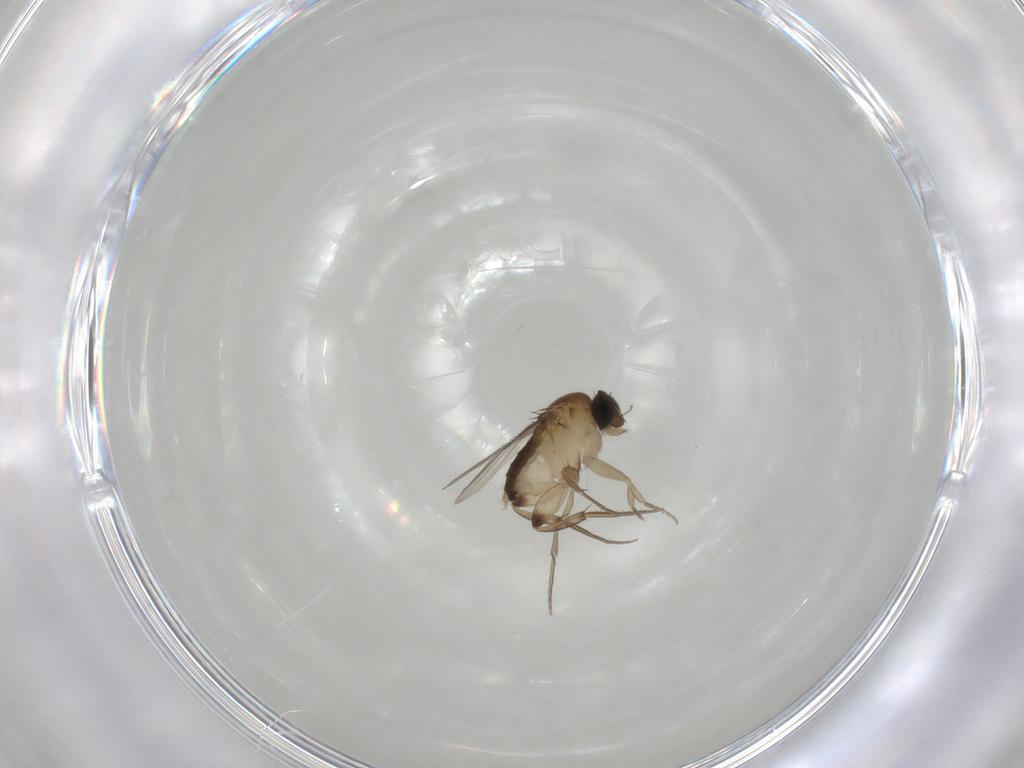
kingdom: Animalia
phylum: Arthropoda
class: Insecta
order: Diptera
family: Phoridae
